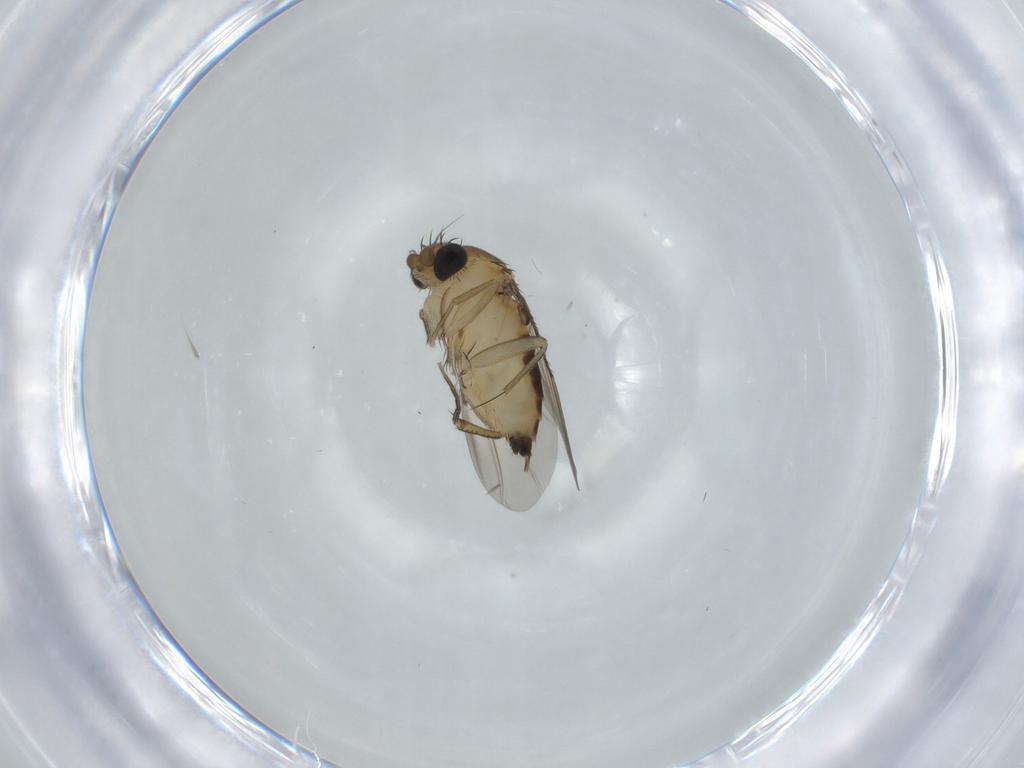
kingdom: Animalia
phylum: Arthropoda
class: Insecta
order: Diptera
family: Phoridae
